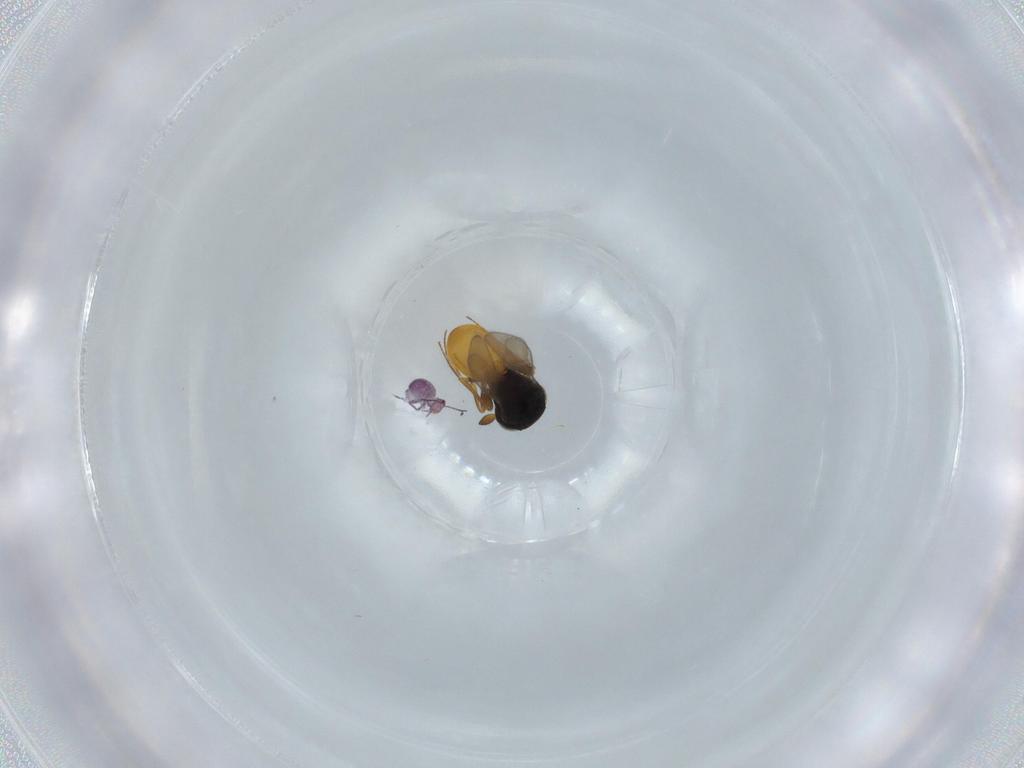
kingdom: Animalia
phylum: Arthropoda
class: Insecta
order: Hymenoptera
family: Scelionidae
